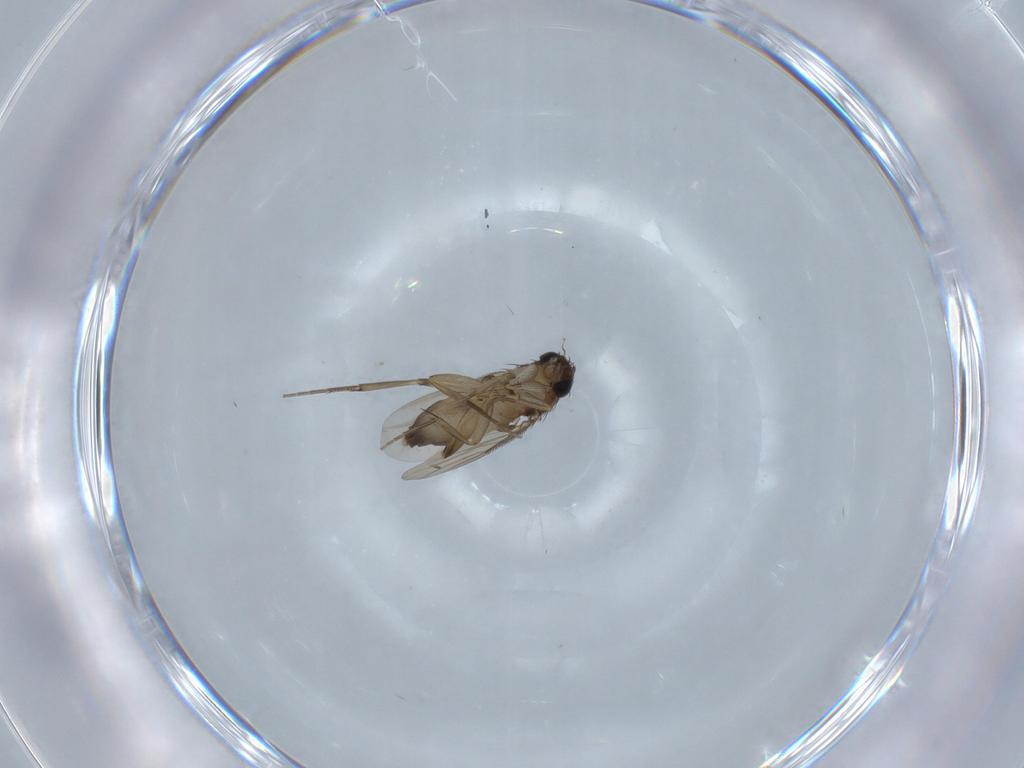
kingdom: Animalia
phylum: Arthropoda
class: Insecta
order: Diptera
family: Phoridae
